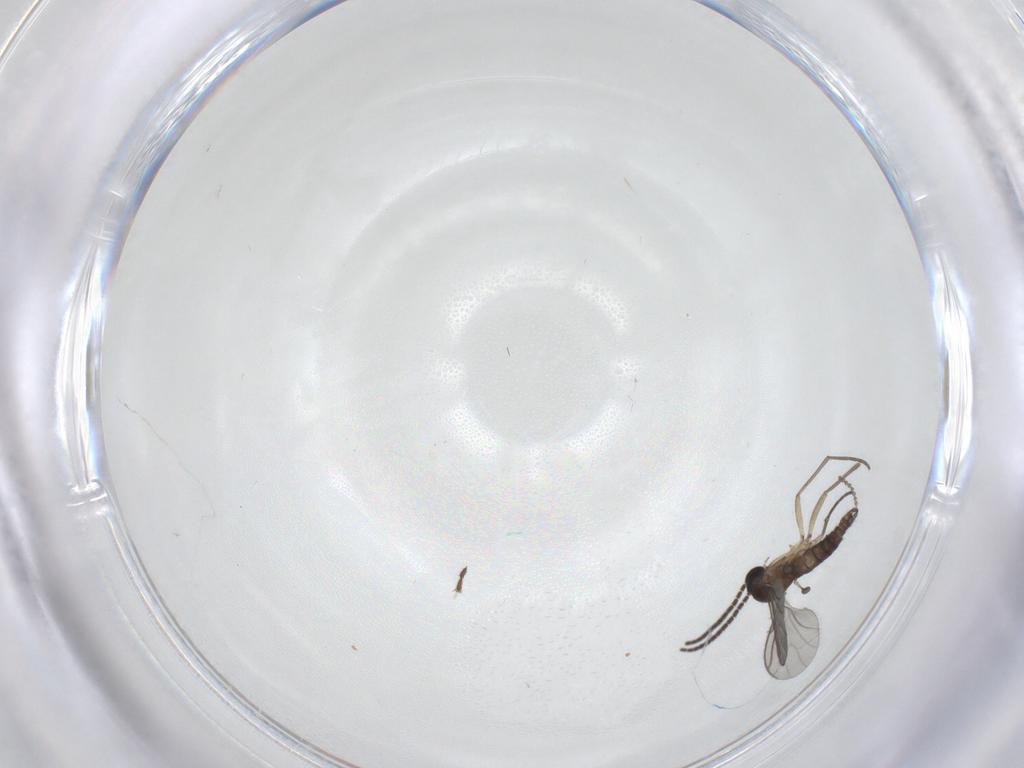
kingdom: Animalia
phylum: Arthropoda
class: Insecta
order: Diptera
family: Sciaridae
